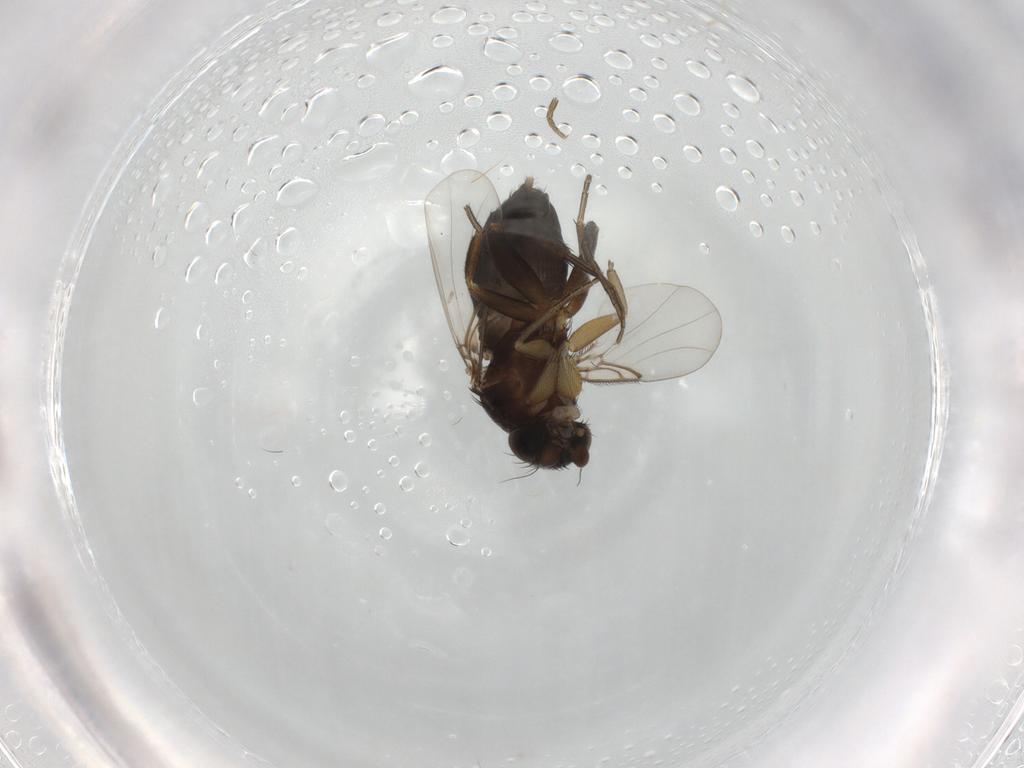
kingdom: Animalia
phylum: Arthropoda
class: Insecta
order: Diptera
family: Phoridae
